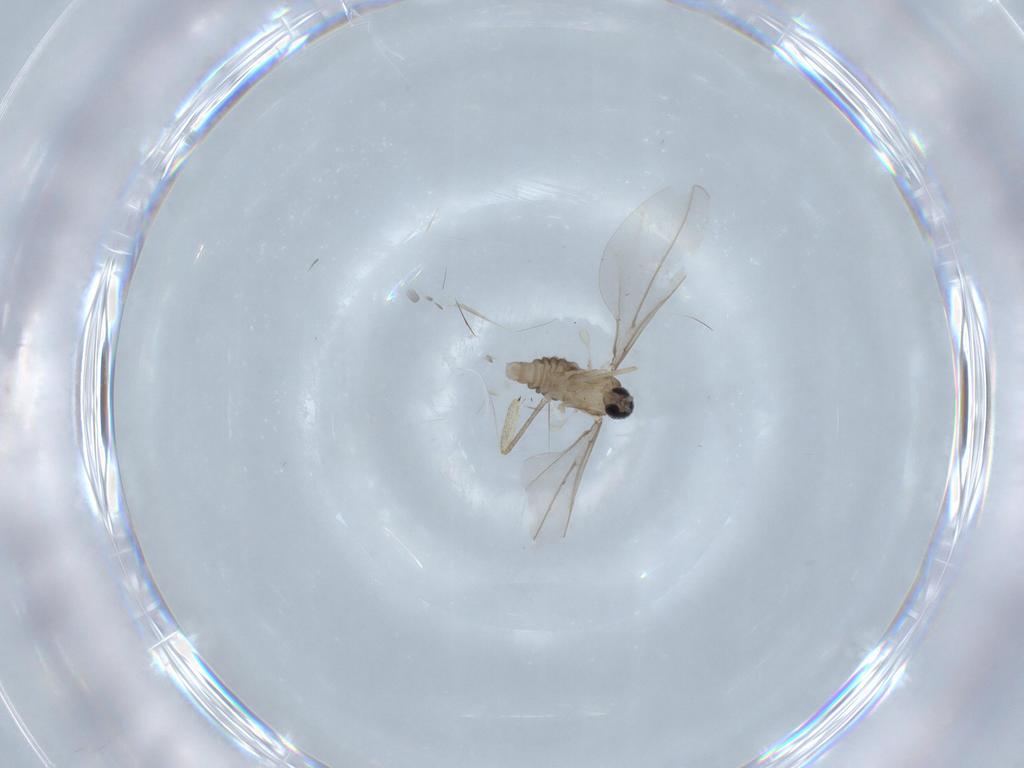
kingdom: Animalia
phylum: Arthropoda
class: Insecta
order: Diptera
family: Sciaridae
